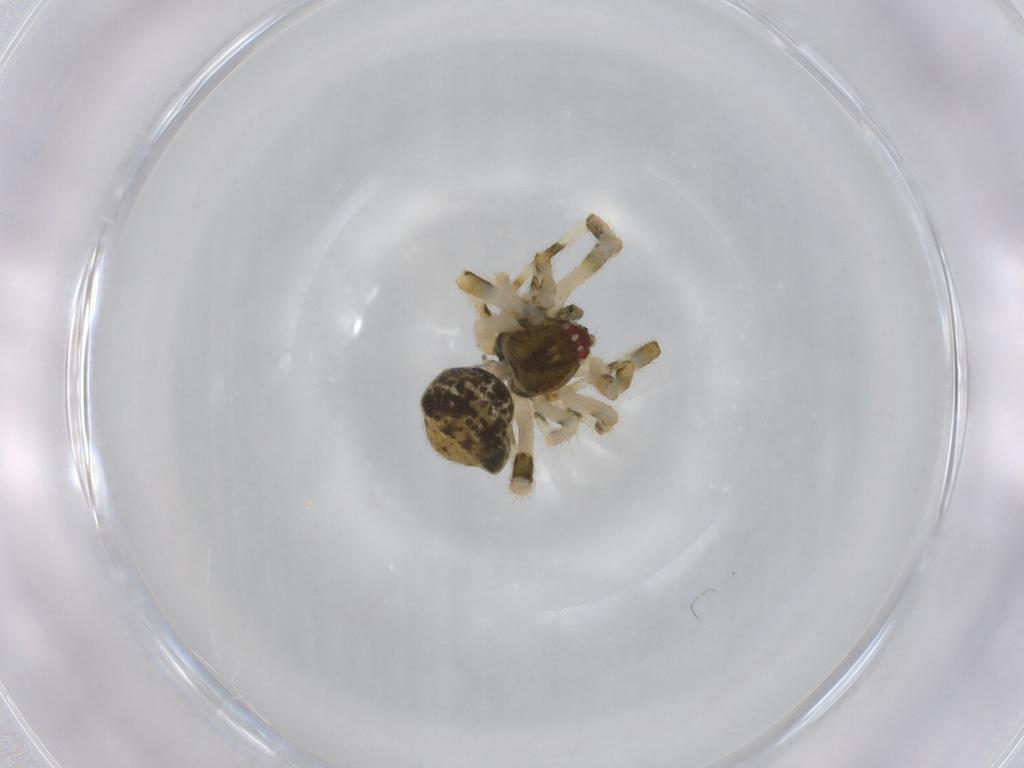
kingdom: Animalia
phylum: Arthropoda
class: Arachnida
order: Araneae
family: Theridiidae
